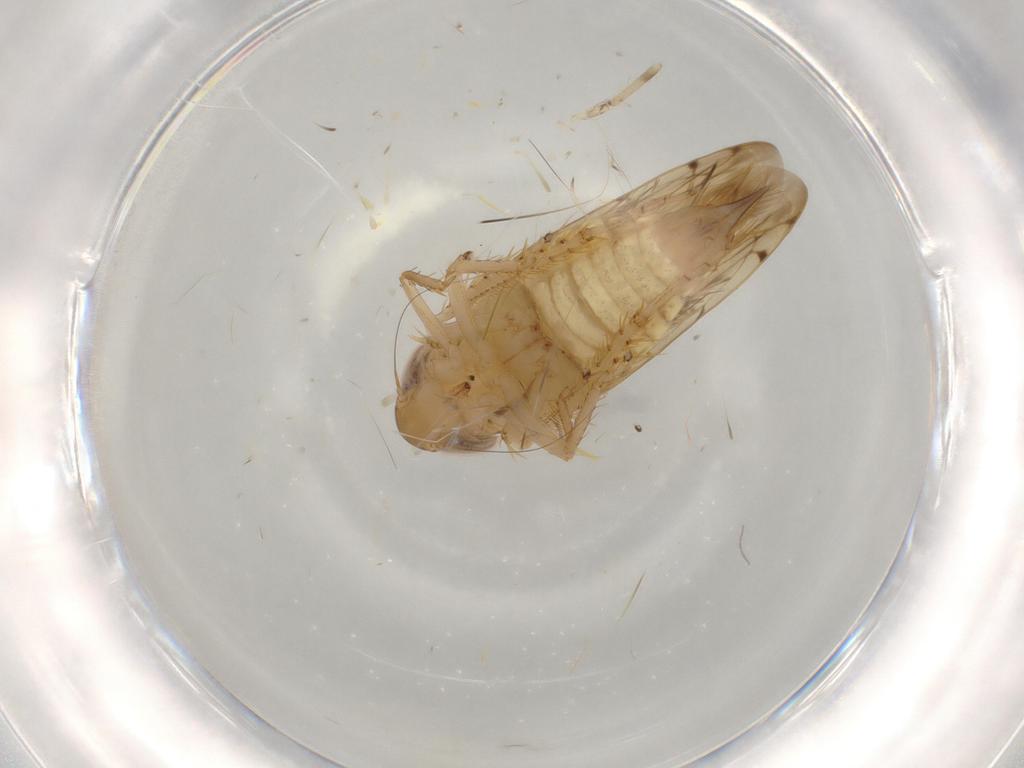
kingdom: Animalia
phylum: Arthropoda
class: Insecta
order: Hemiptera
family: Cicadellidae
